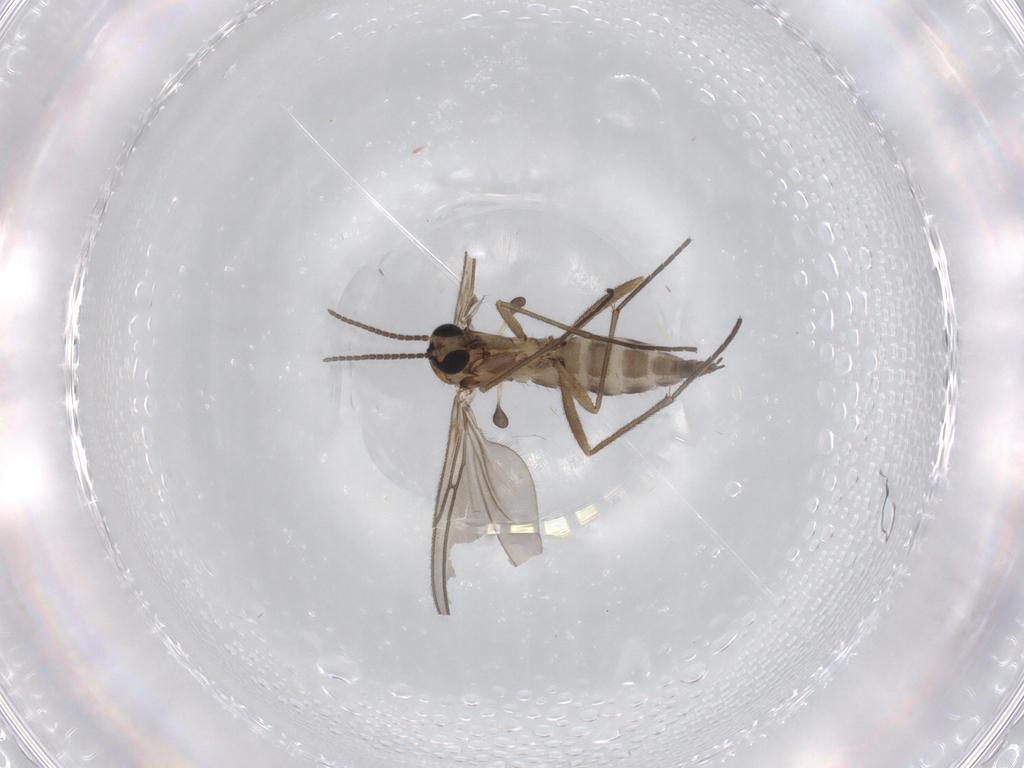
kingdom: Animalia
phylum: Arthropoda
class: Insecta
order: Diptera
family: Sciaridae
